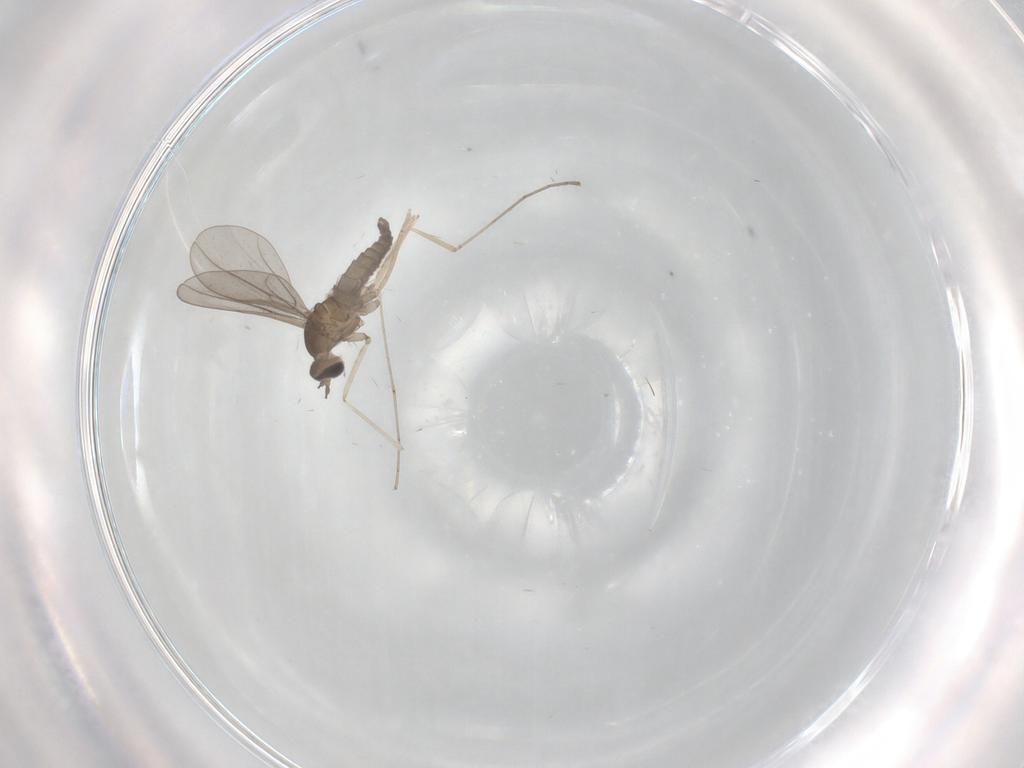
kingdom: Animalia
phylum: Arthropoda
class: Insecta
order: Diptera
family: Cecidomyiidae
